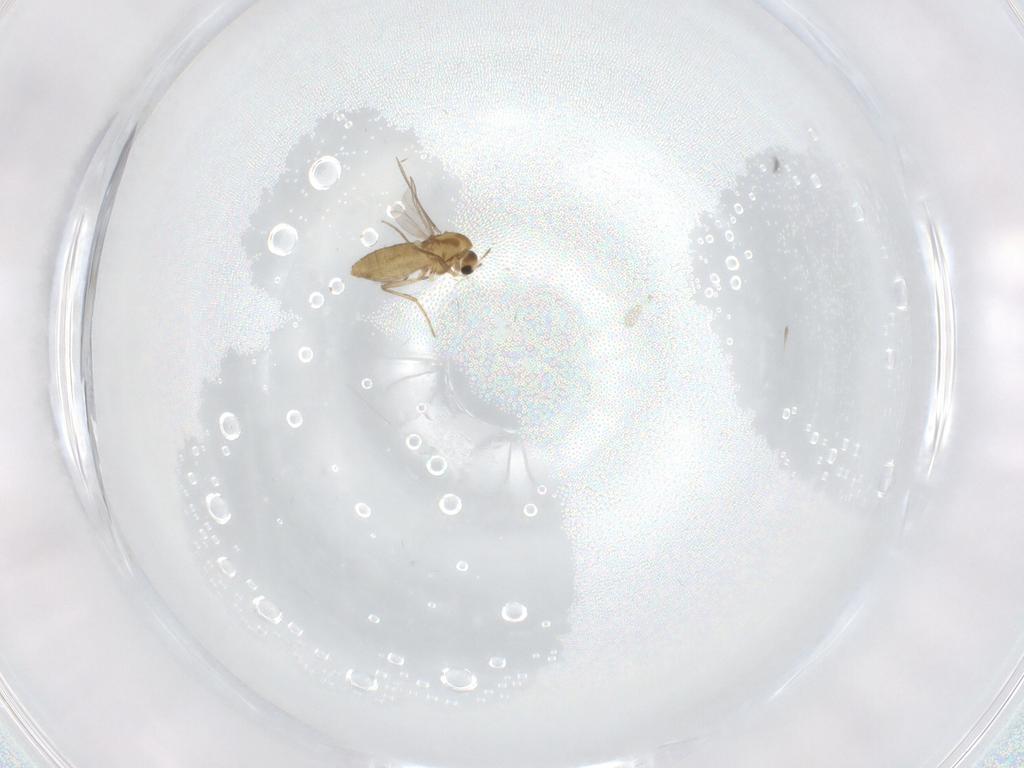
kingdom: Animalia
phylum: Arthropoda
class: Insecta
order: Diptera
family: Chironomidae
